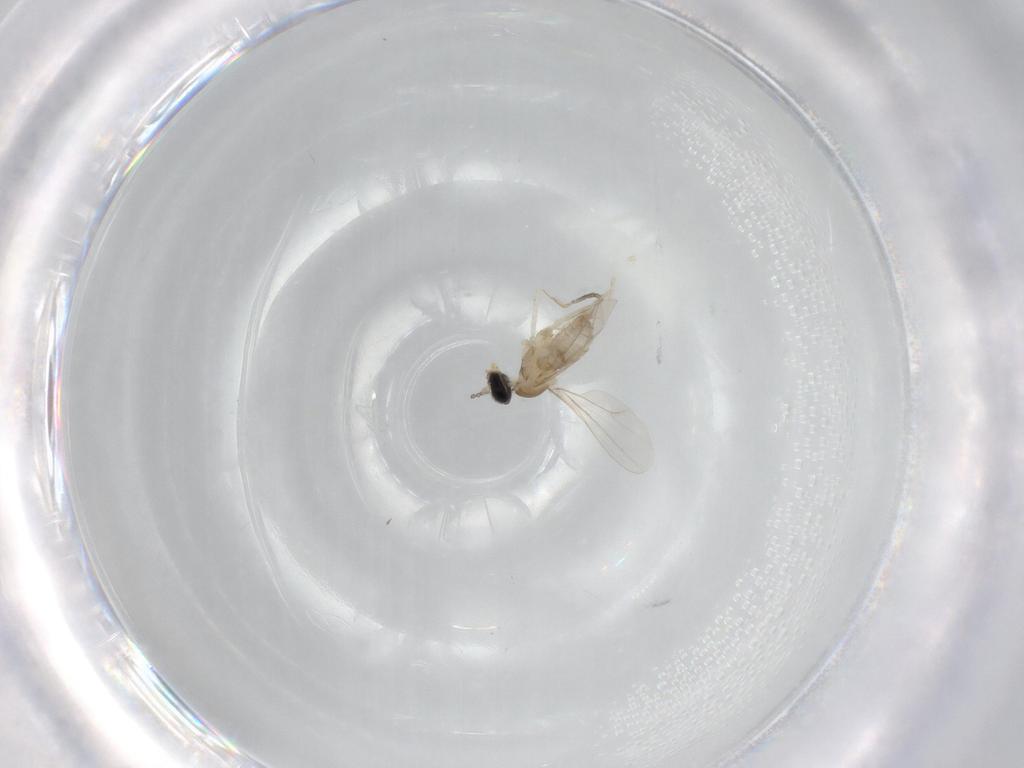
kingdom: Animalia
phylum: Arthropoda
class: Insecta
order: Diptera
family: Cecidomyiidae
